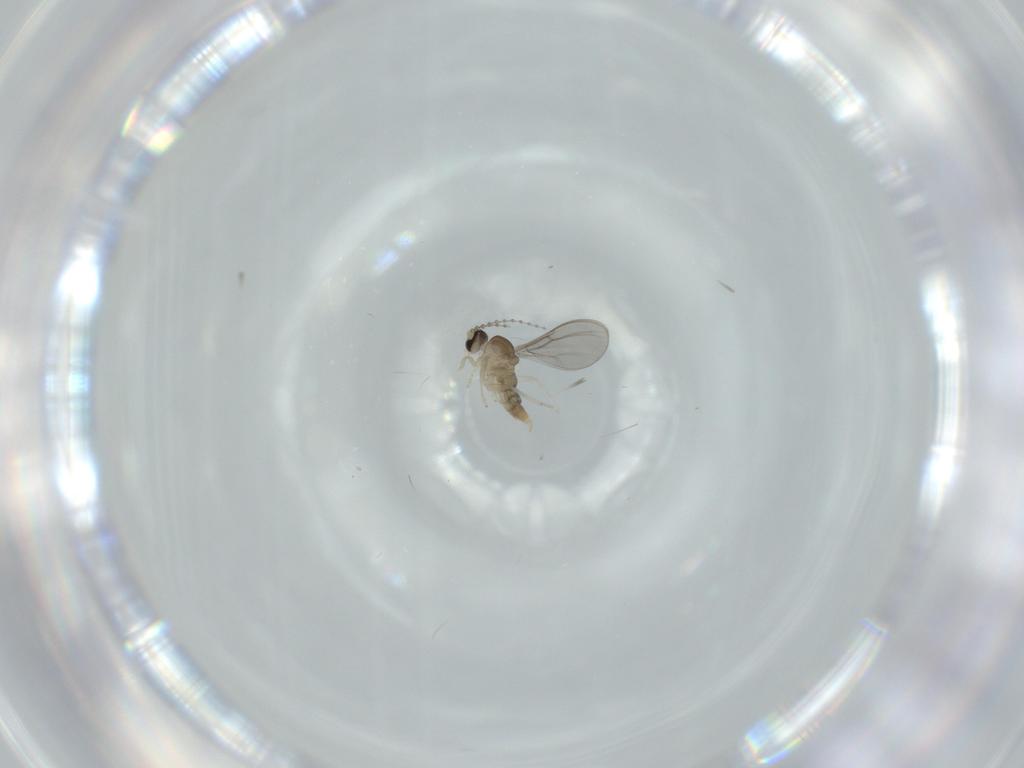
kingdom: Animalia
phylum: Arthropoda
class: Insecta
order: Diptera
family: Cecidomyiidae
